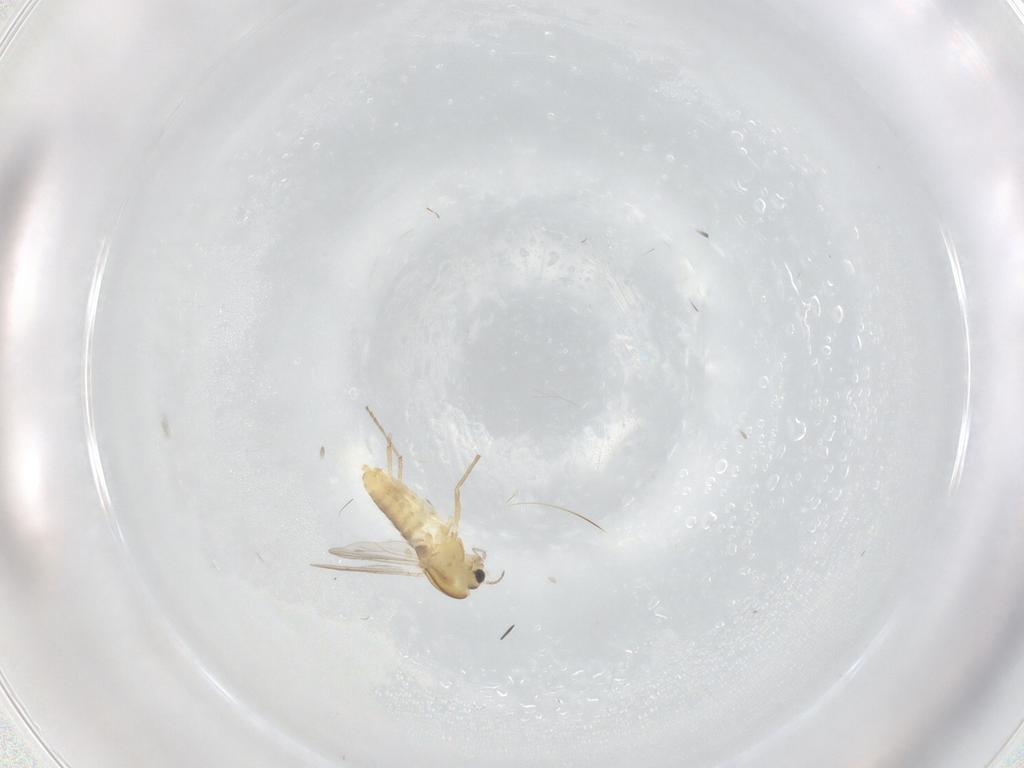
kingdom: Animalia
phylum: Arthropoda
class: Insecta
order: Diptera
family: Chironomidae
